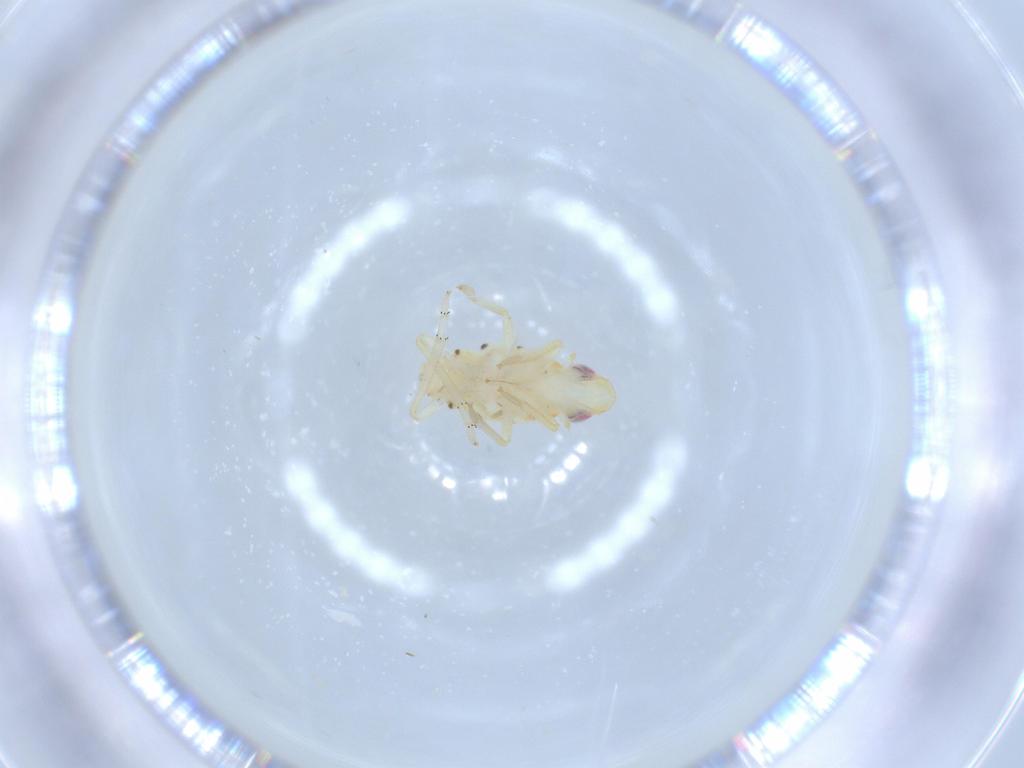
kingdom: Animalia
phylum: Arthropoda
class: Insecta
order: Hemiptera
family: Tropiduchidae
